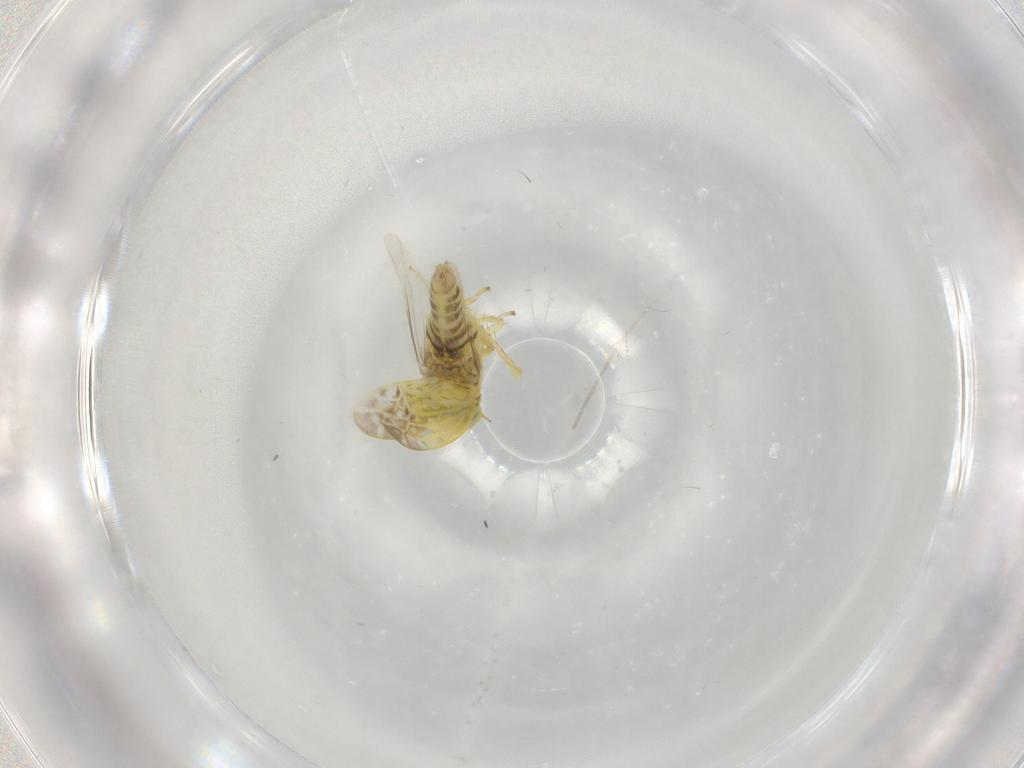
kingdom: Animalia
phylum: Arthropoda
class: Insecta
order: Hemiptera
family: Cicadellidae
